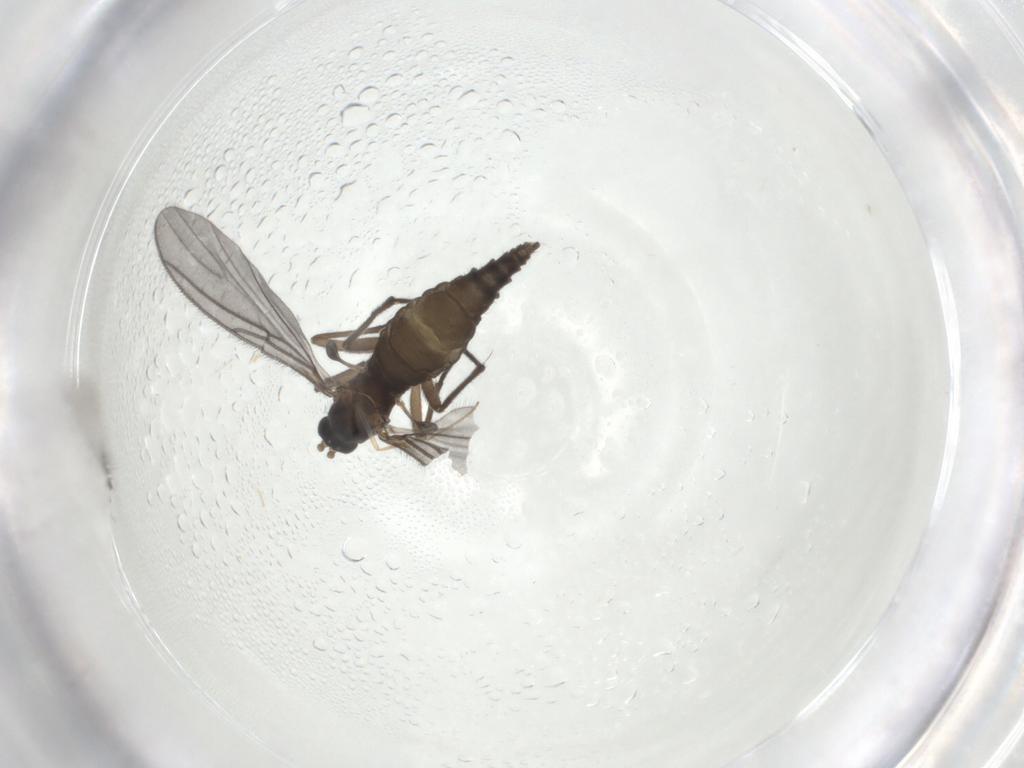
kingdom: Animalia
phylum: Arthropoda
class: Insecta
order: Diptera
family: Sciaridae
